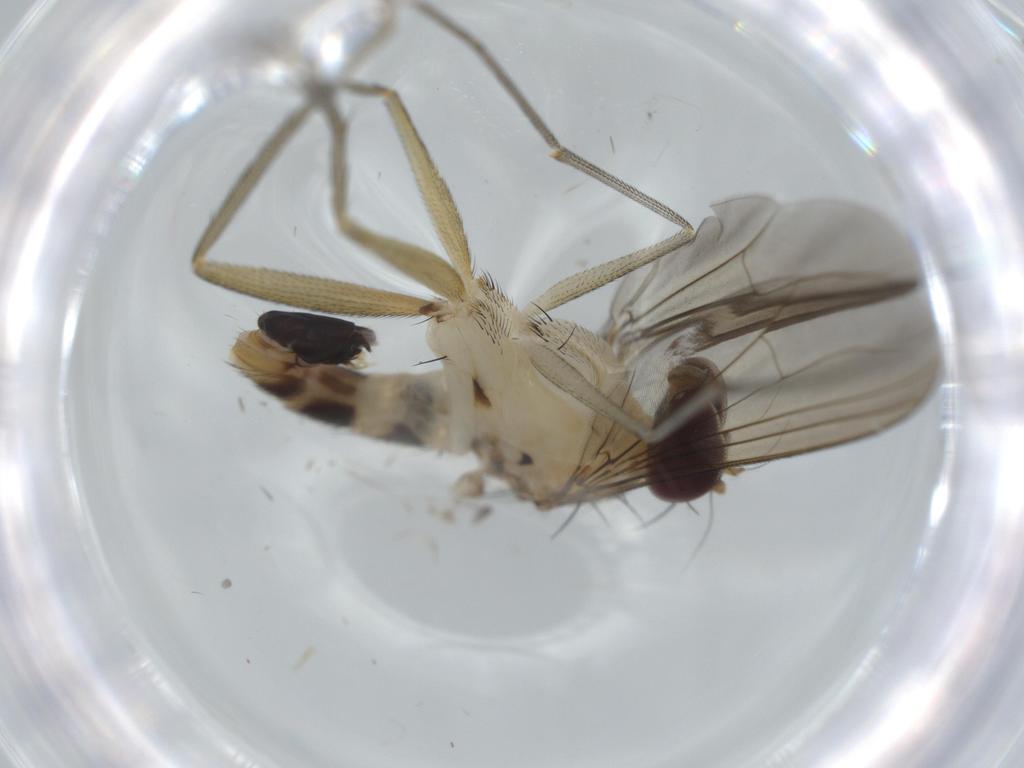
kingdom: Animalia
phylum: Arthropoda
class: Insecta
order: Diptera
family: Dolichopodidae
